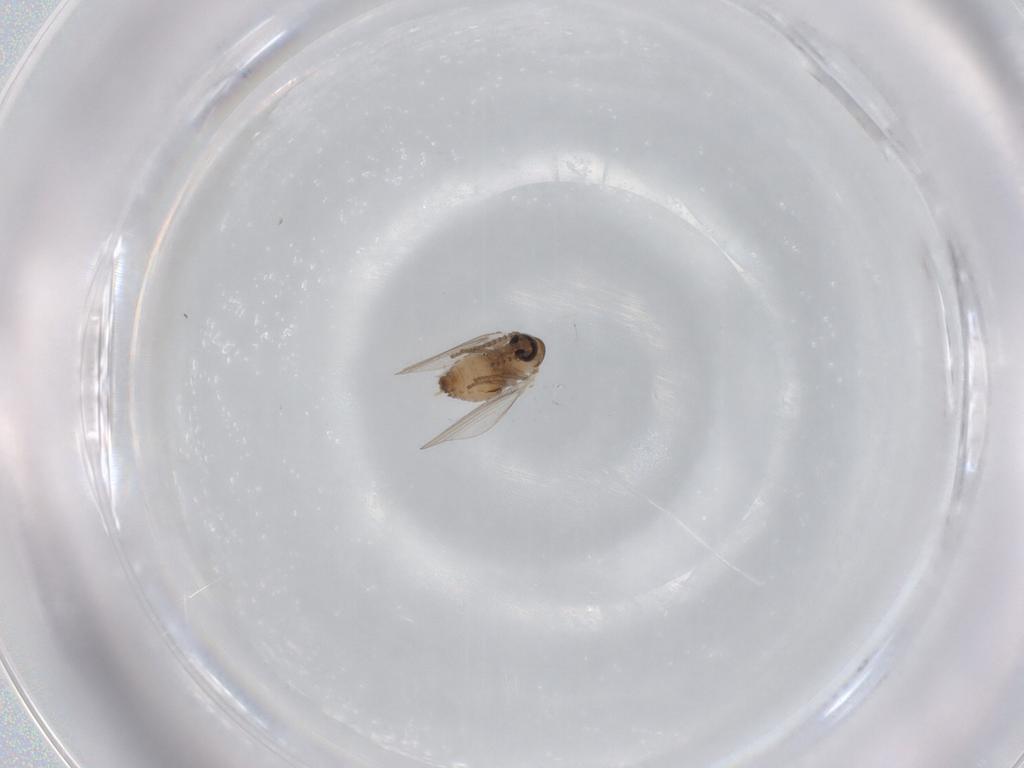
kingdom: Animalia
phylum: Arthropoda
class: Insecta
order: Diptera
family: Psychodidae
